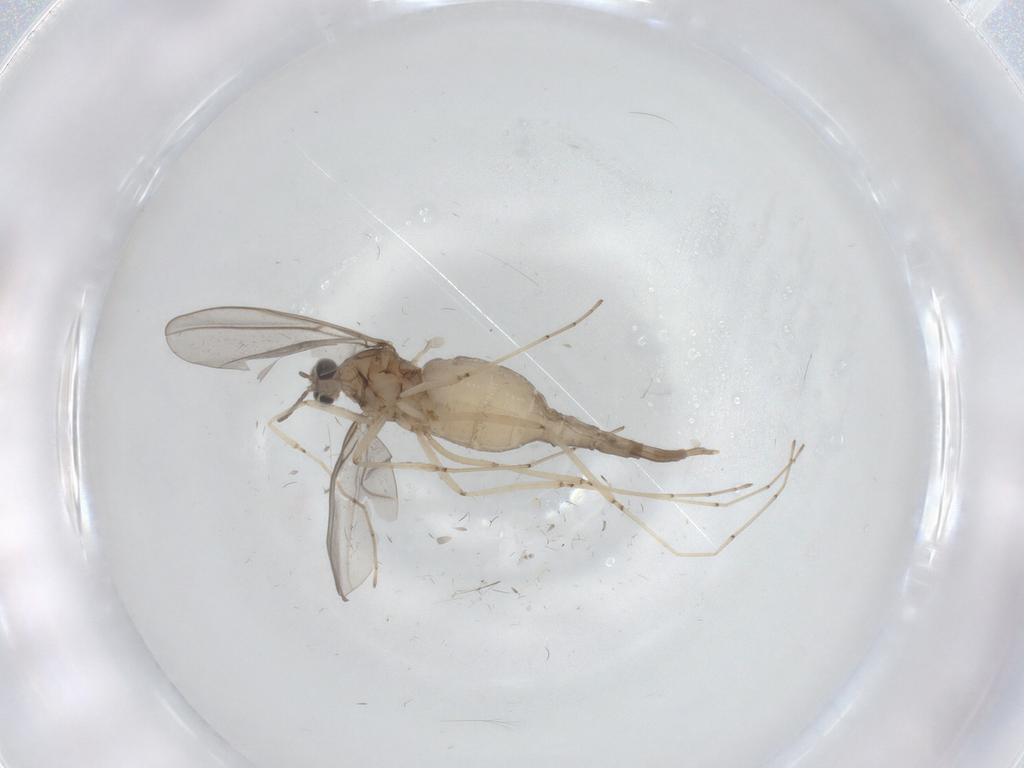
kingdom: Animalia
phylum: Arthropoda
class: Insecta
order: Diptera
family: Cecidomyiidae
